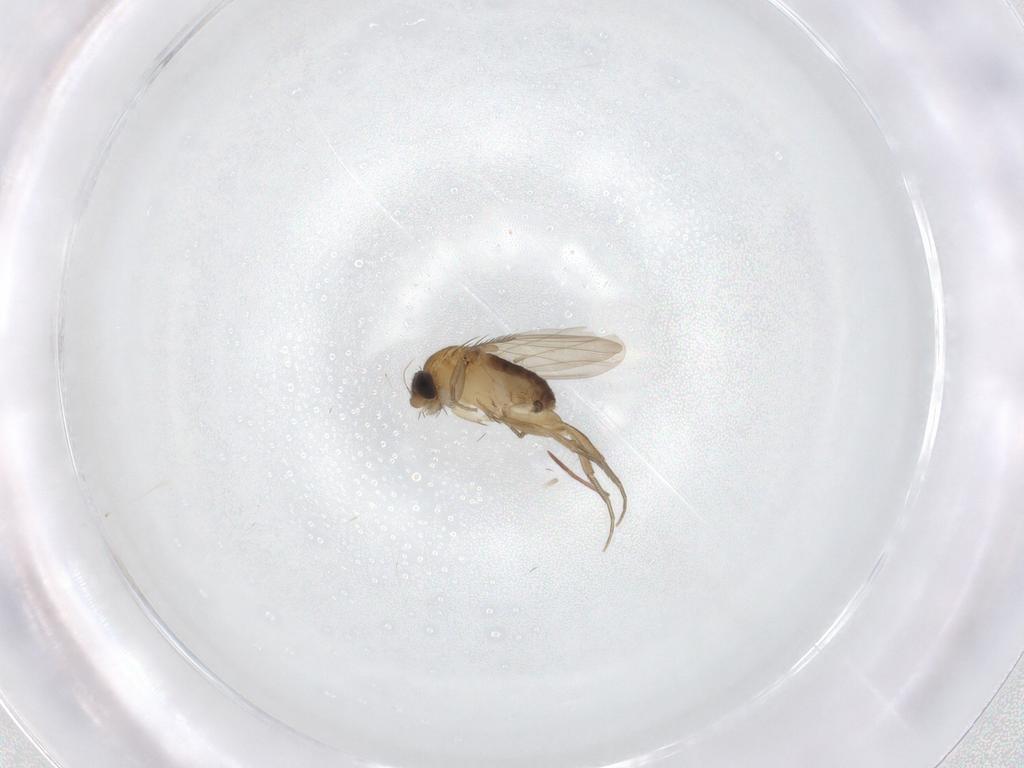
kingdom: Animalia
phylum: Arthropoda
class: Insecta
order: Diptera
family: Phoridae
